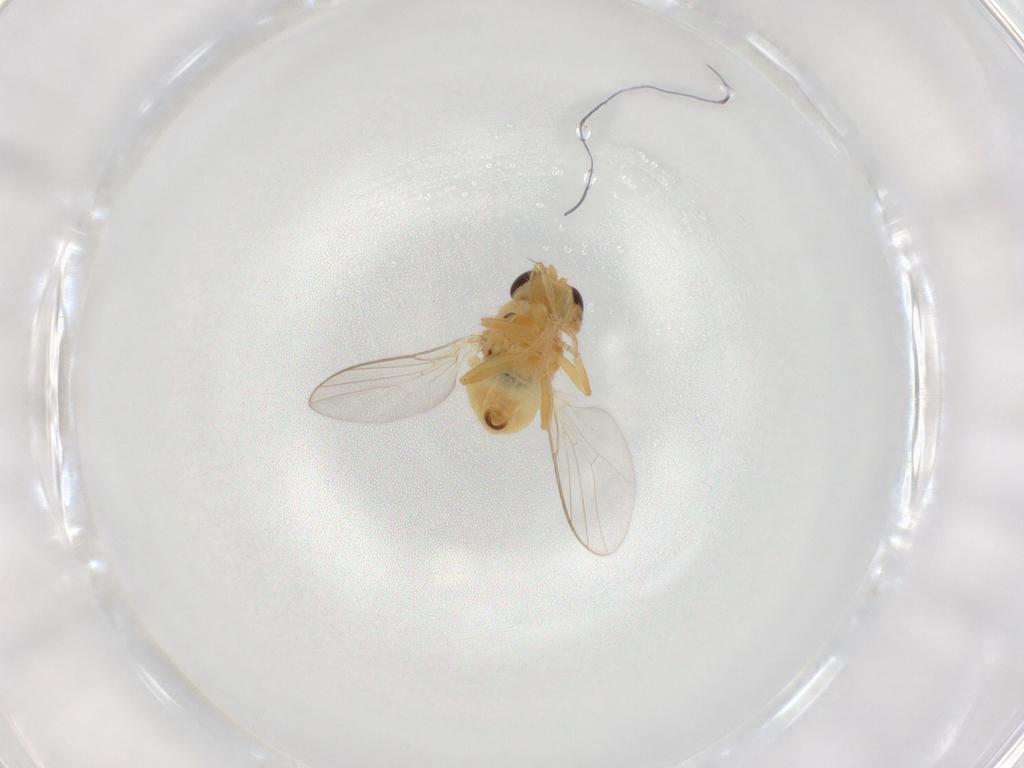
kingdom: Animalia
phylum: Arthropoda
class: Insecta
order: Diptera
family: Chloropidae
